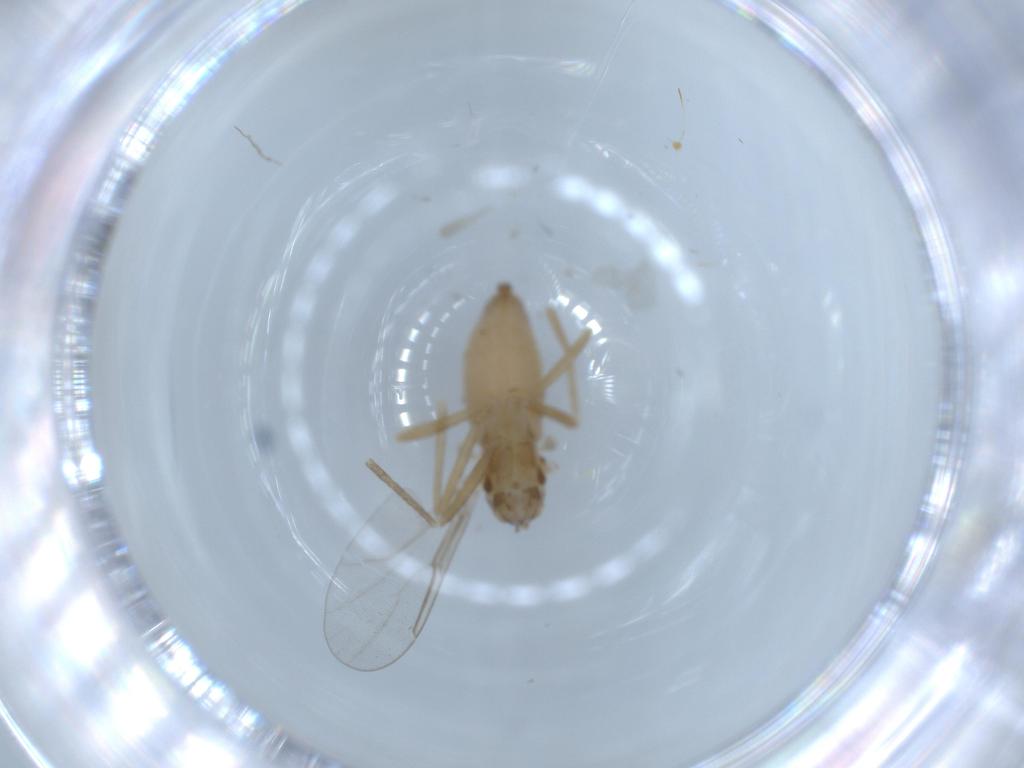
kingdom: Animalia
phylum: Arthropoda
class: Insecta
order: Diptera
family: Cecidomyiidae
